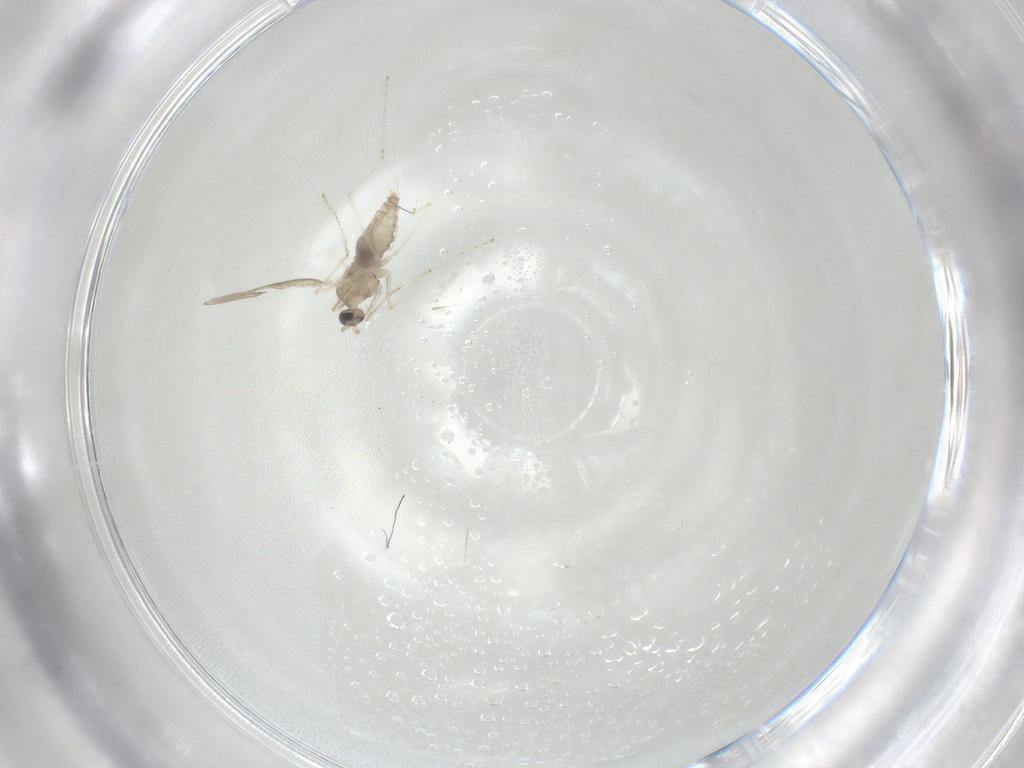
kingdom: Animalia
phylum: Arthropoda
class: Insecta
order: Diptera
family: Cecidomyiidae
